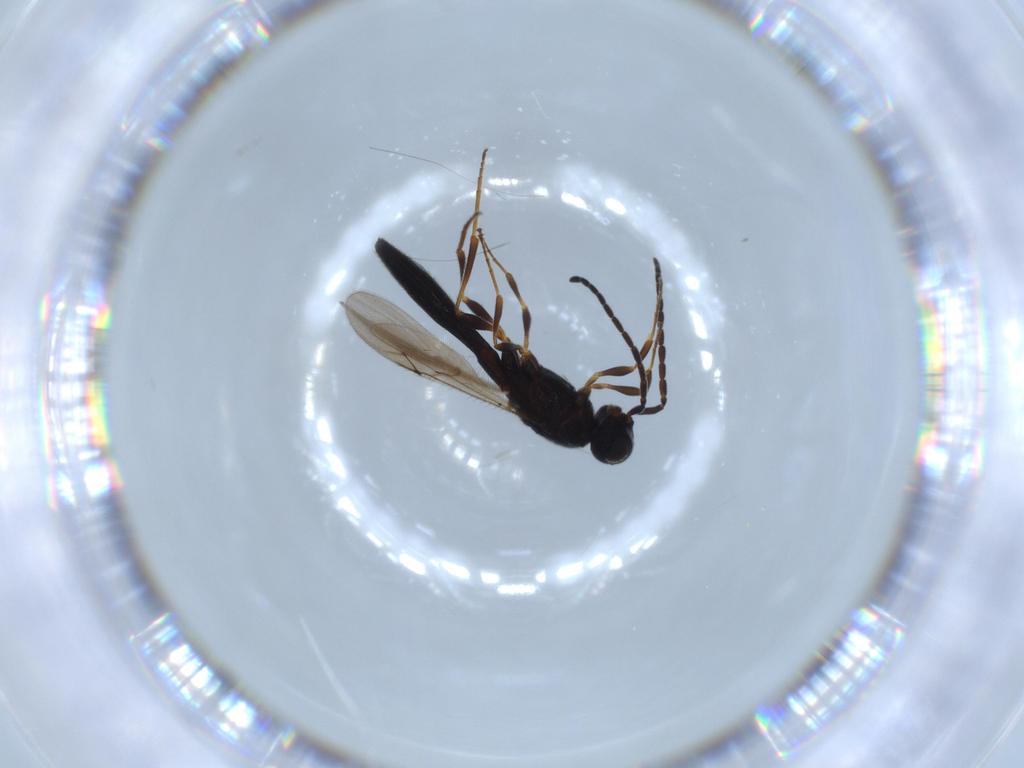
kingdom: Animalia
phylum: Arthropoda
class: Insecta
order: Hymenoptera
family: Scelionidae
